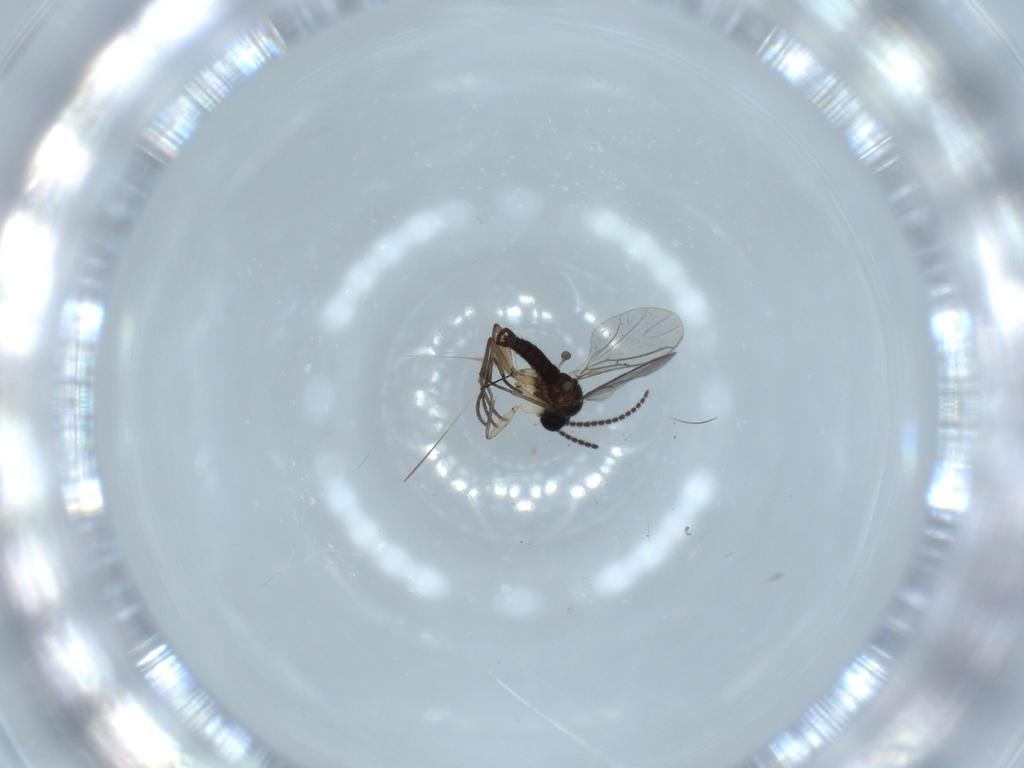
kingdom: Animalia
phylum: Arthropoda
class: Insecta
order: Diptera
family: Sciaridae
